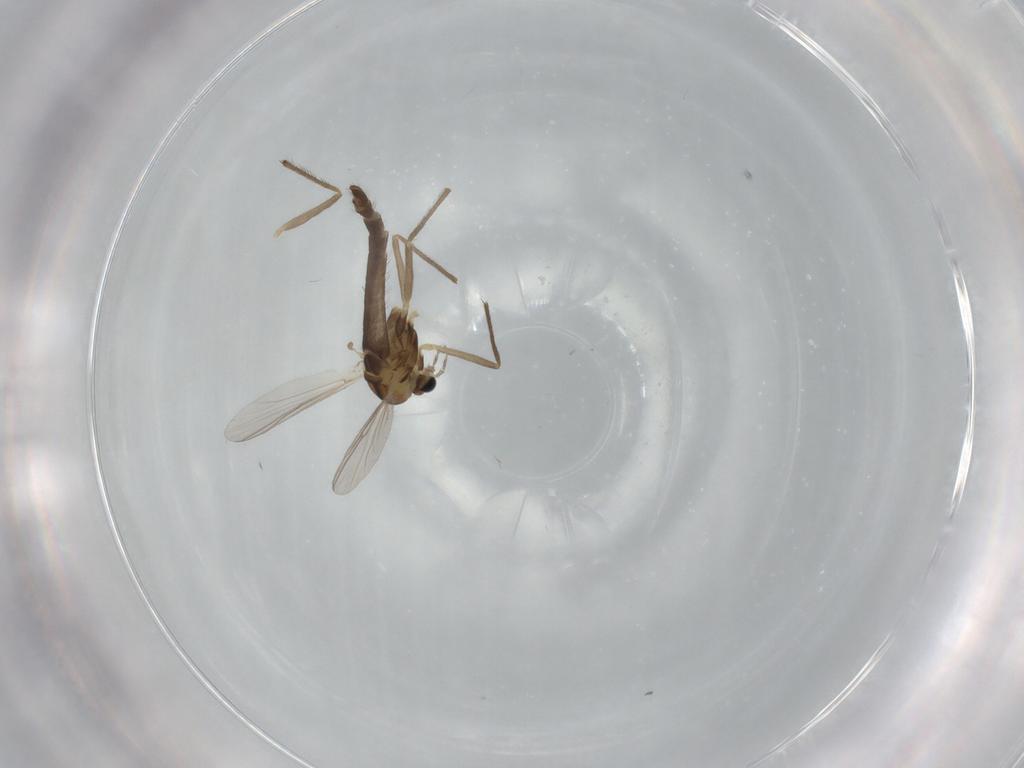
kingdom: Animalia
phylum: Arthropoda
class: Insecta
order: Diptera
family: Chironomidae
